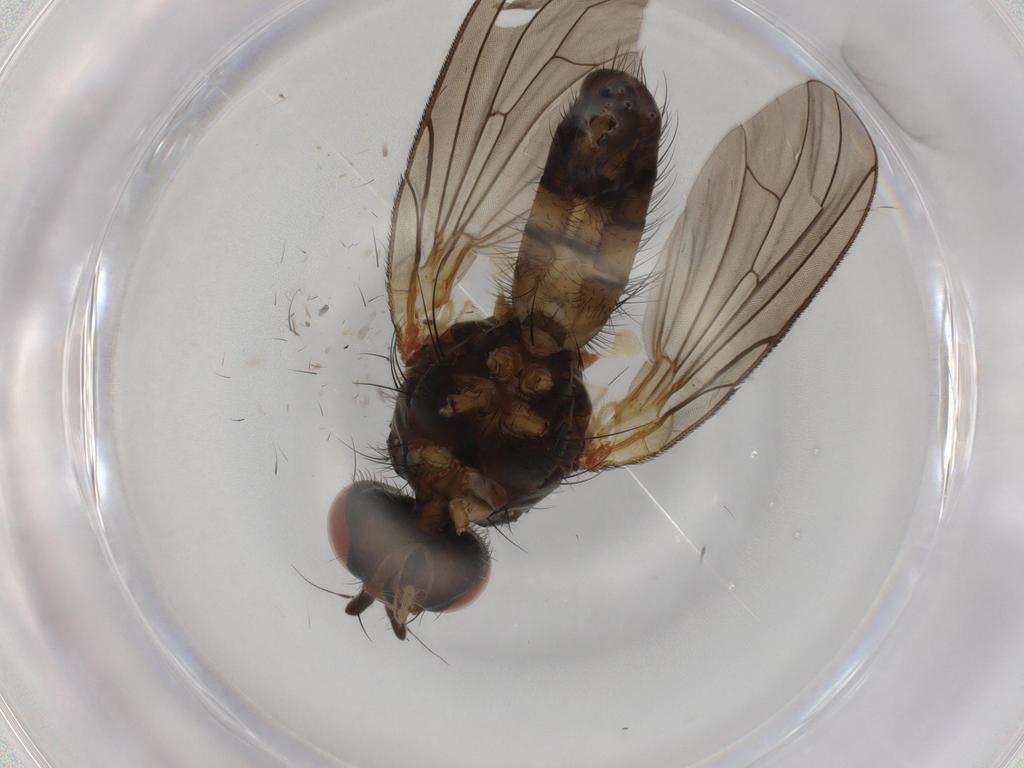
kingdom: Animalia
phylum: Arthropoda
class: Insecta
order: Diptera
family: Anthomyiidae
